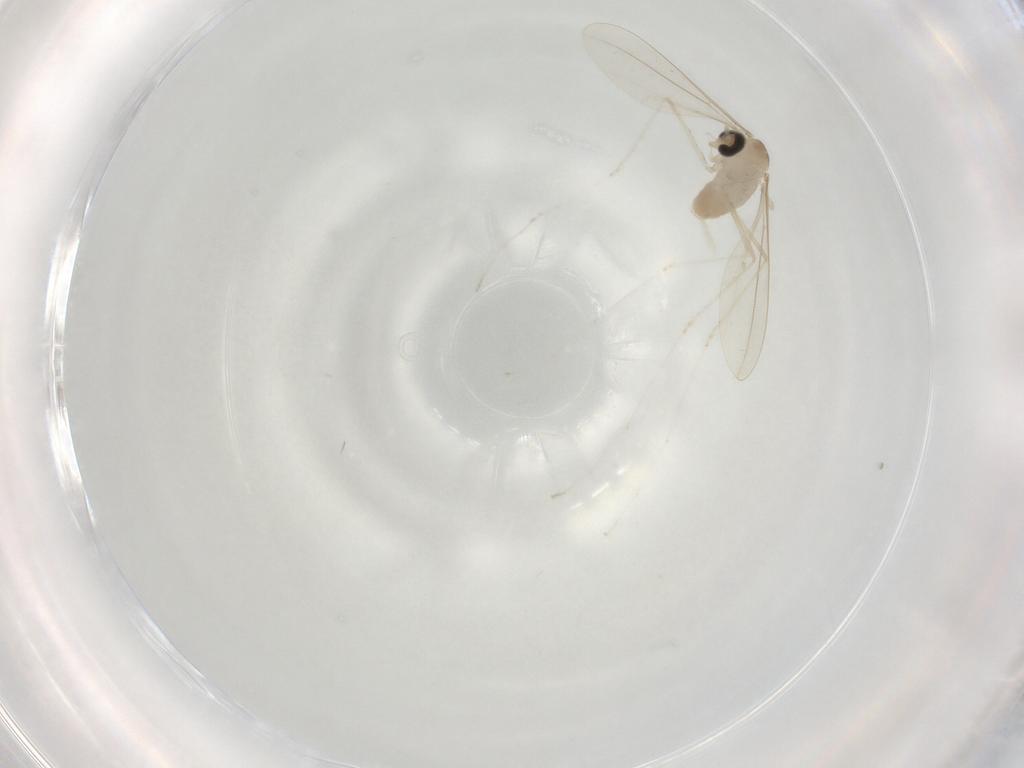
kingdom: Animalia
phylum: Arthropoda
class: Insecta
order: Diptera
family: Cecidomyiidae
